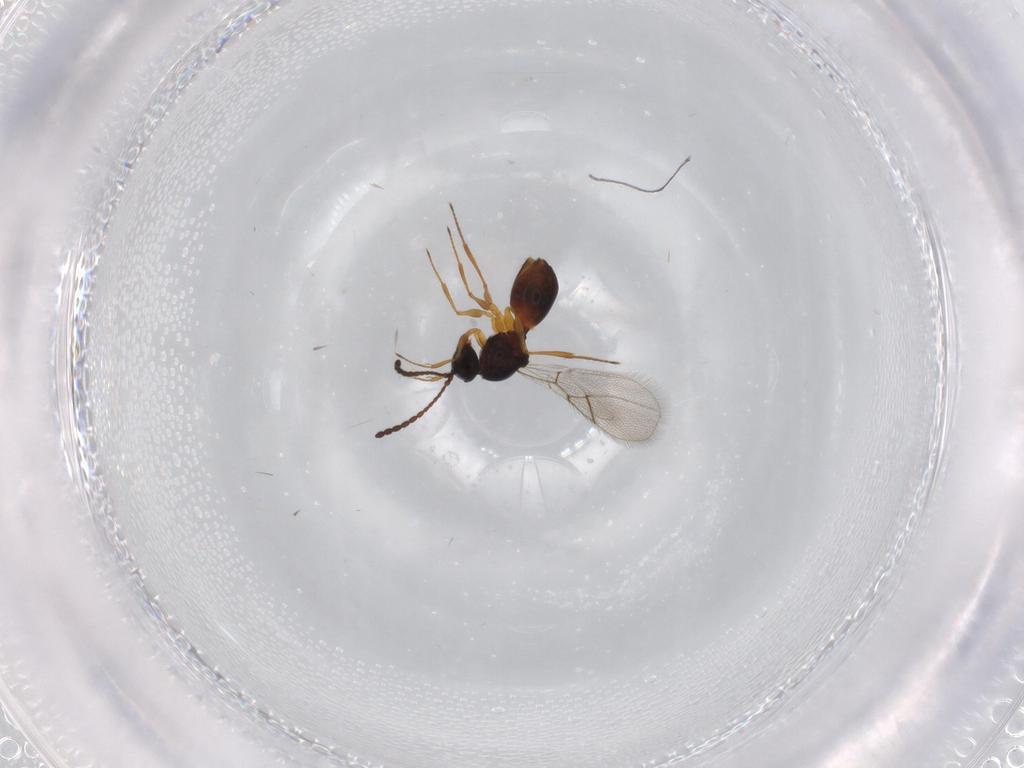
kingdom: Animalia
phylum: Arthropoda
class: Insecta
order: Hymenoptera
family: Figitidae
